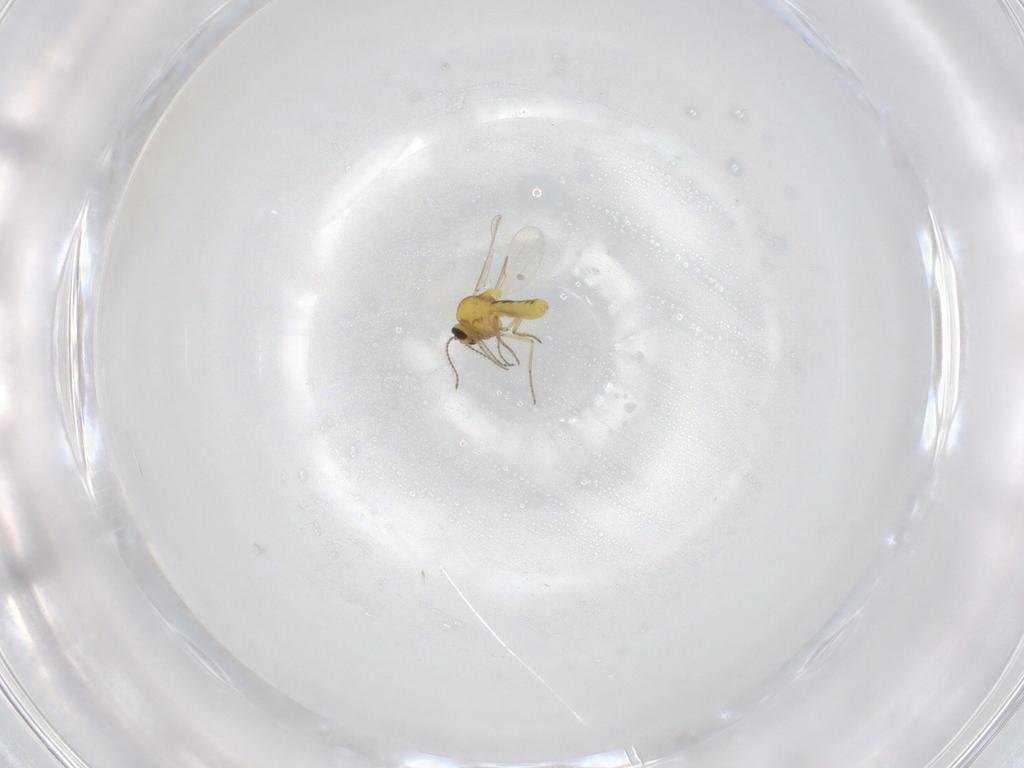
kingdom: Animalia
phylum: Arthropoda
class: Insecta
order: Diptera
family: Ceratopogonidae
